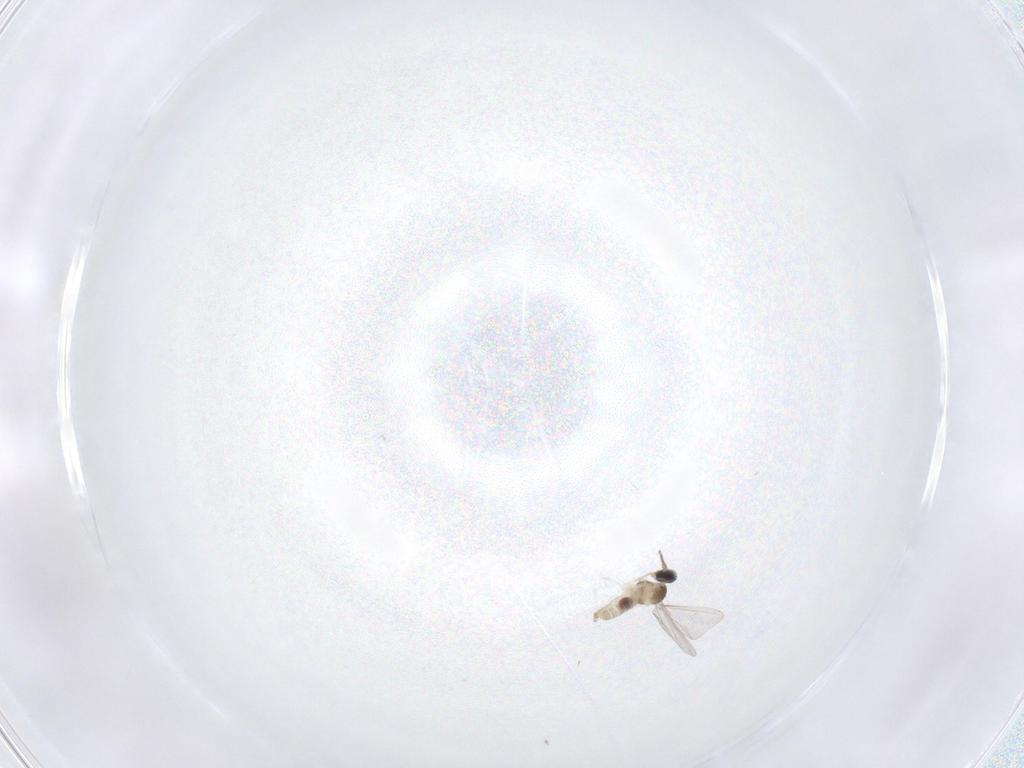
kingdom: Animalia
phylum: Arthropoda
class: Insecta
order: Diptera
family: Cecidomyiidae
